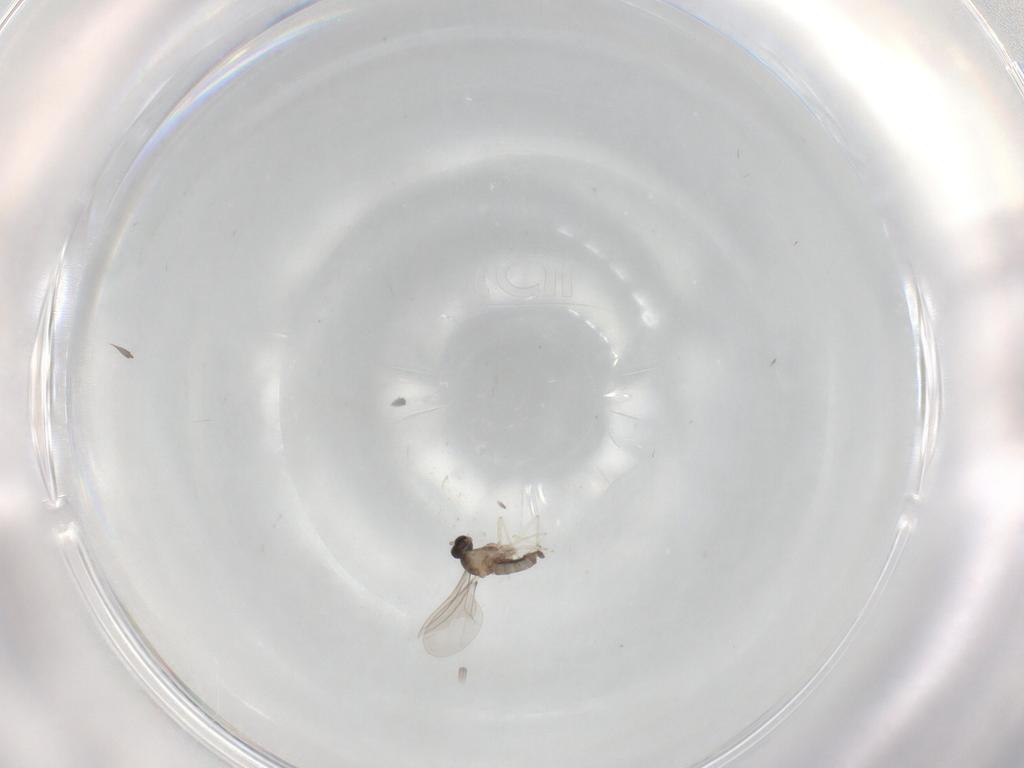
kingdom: Animalia
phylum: Arthropoda
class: Insecta
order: Diptera
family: Cecidomyiidae
